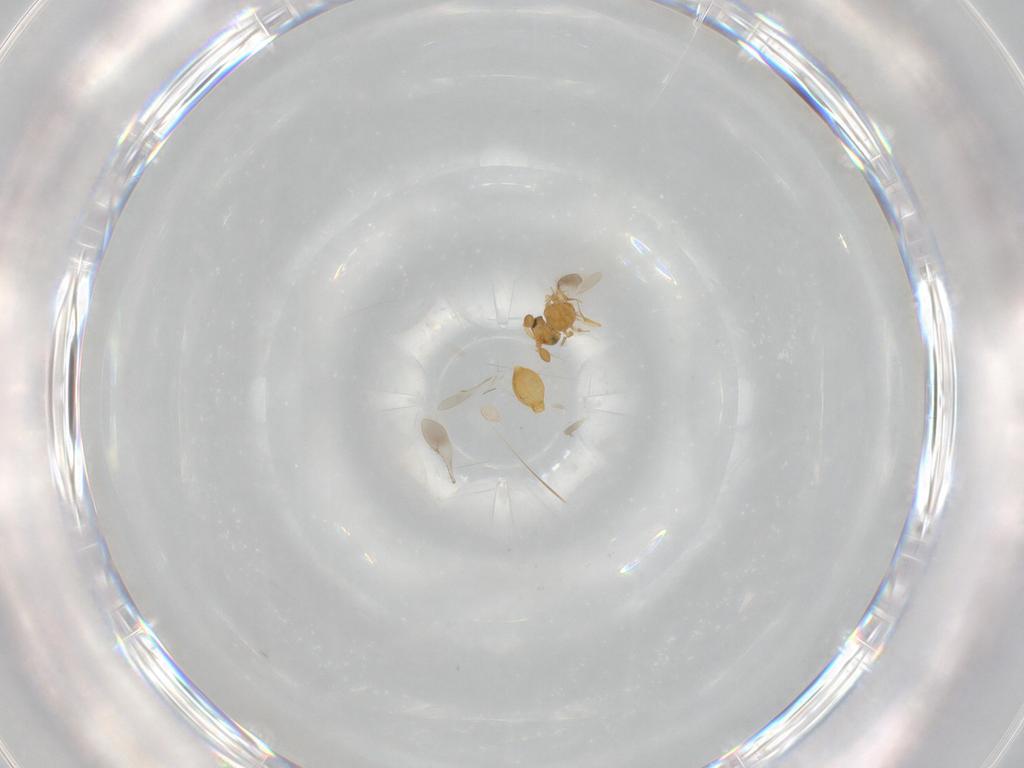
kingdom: Animalia
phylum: Arthropoda
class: Insecta
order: Hymenoptera
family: Scelionidae
